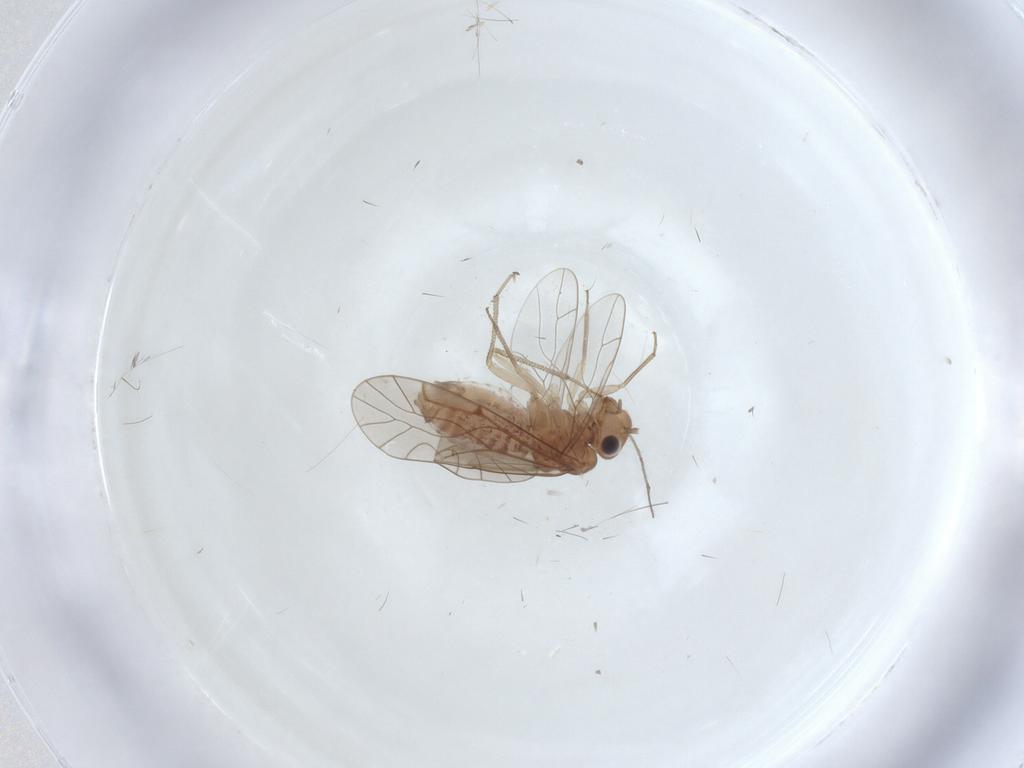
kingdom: Animalia
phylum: Arthropoda
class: Insecta
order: Psocodea
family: Lachesillidae
